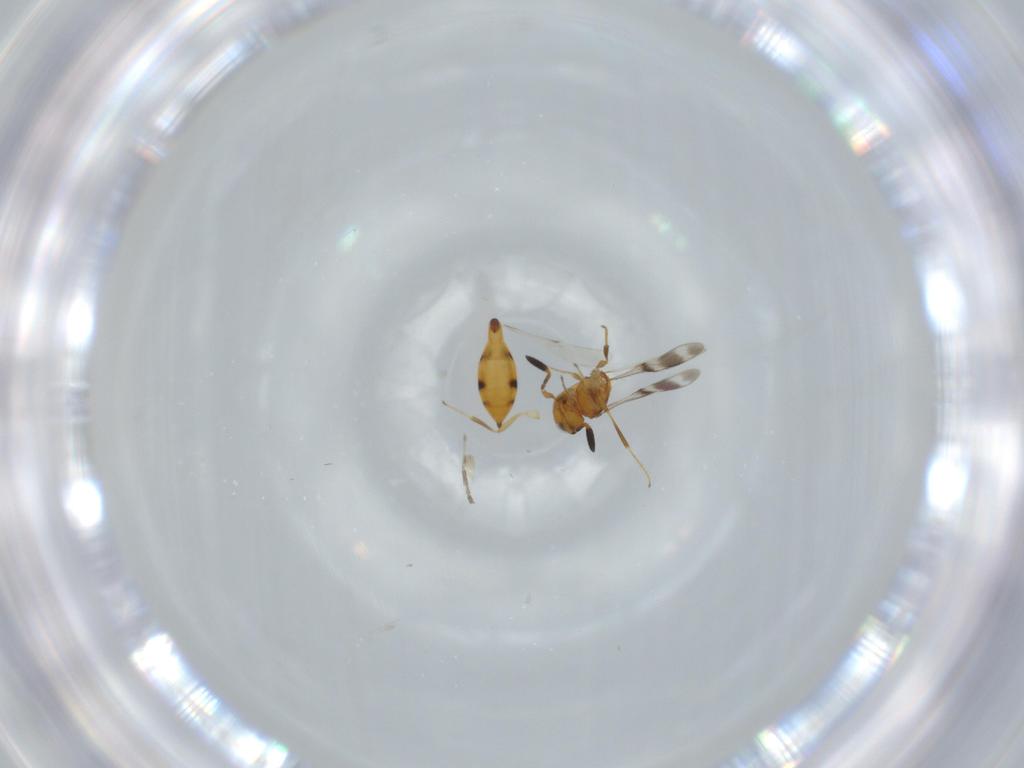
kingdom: Animalia
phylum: Arthropoda
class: Insecta
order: Hymenoptera
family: Scelionidae
